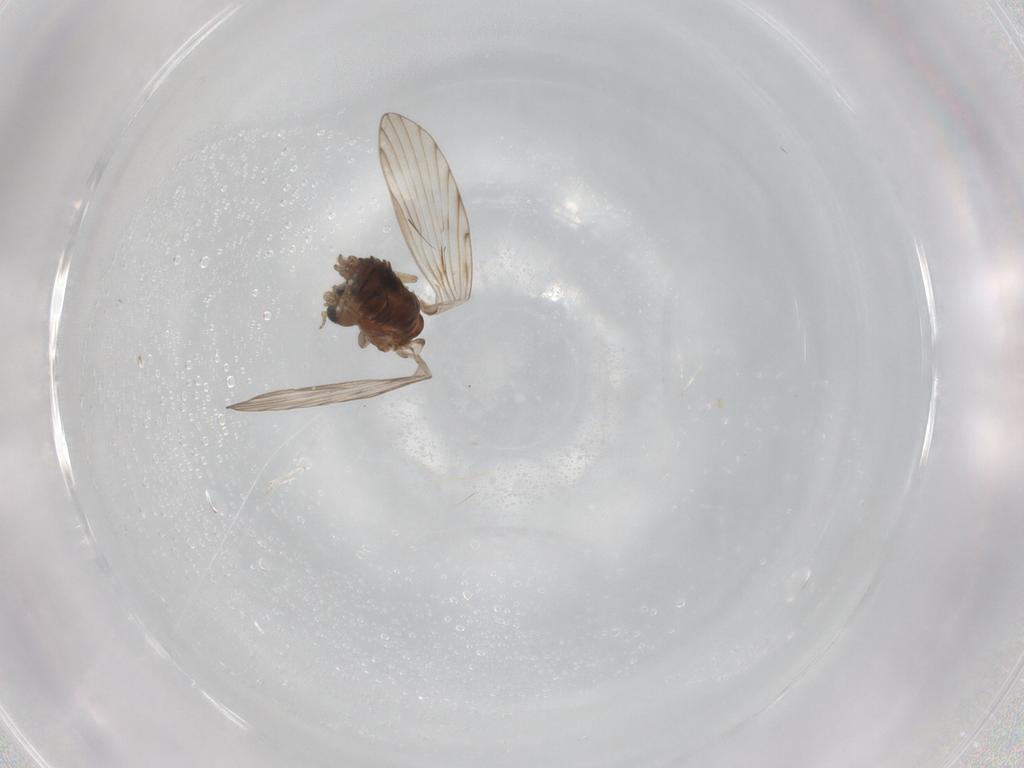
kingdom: Animalia
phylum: Arthropoda
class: Insecta
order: Diptera
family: Psychodidae
